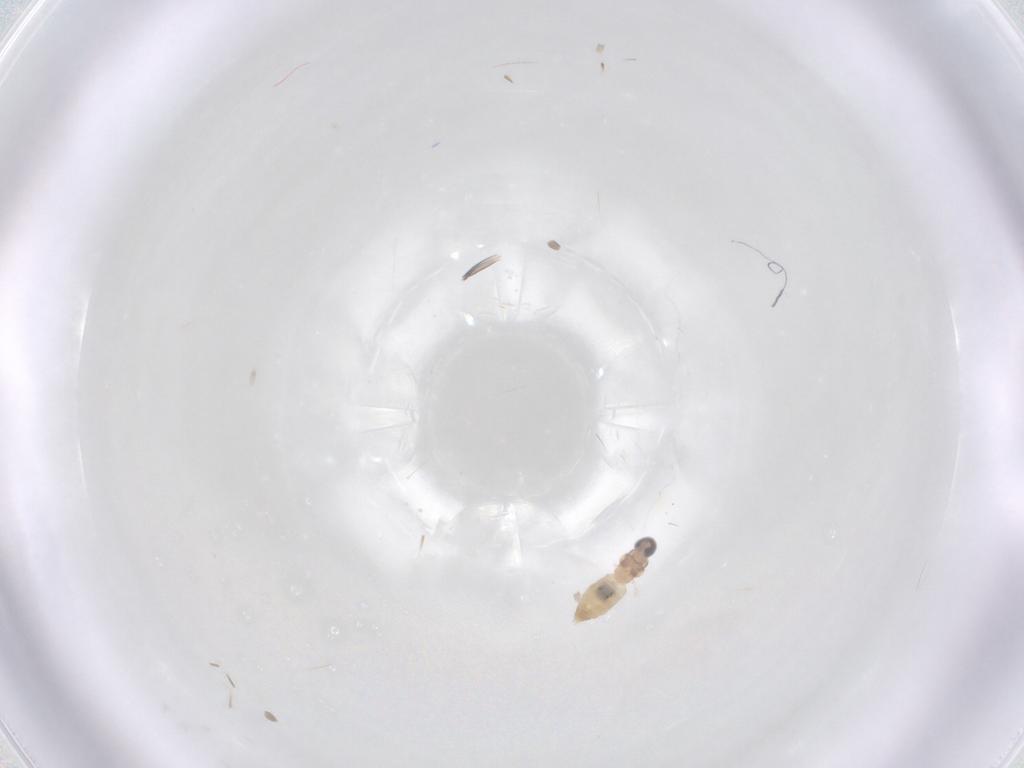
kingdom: Animalia
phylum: Arthropoda
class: Insecta
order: Diptera
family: Cecidomyiidae
